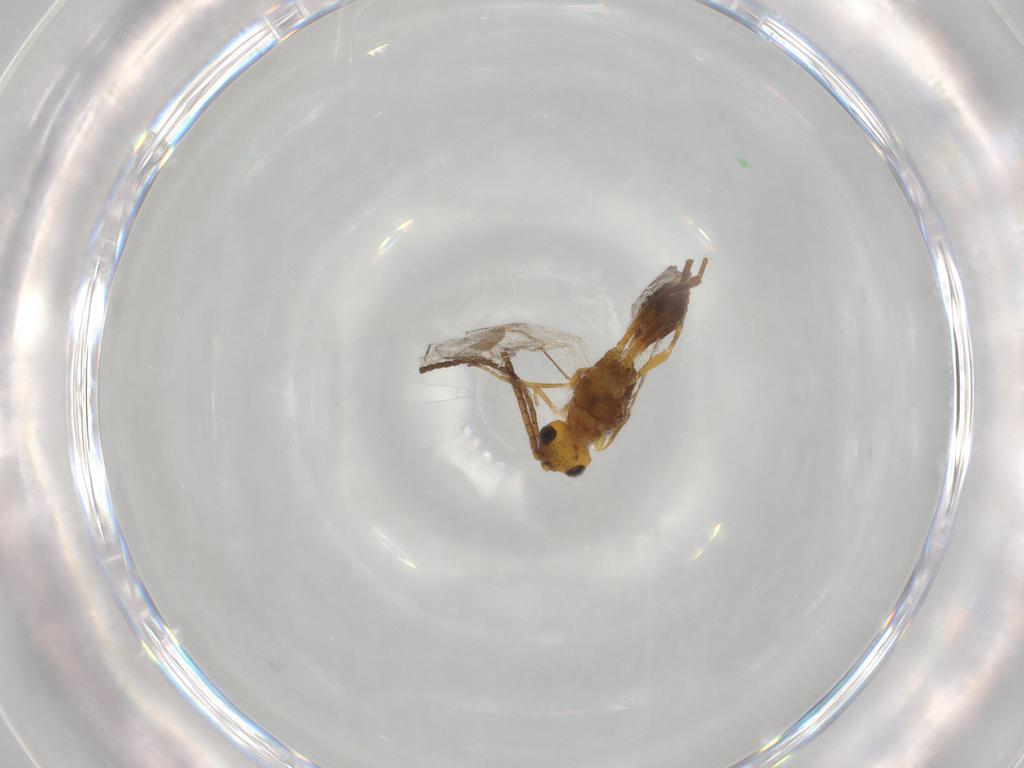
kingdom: Animalia
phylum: Arthropoda
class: Insecta
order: Hymenoptera
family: Braconidae
